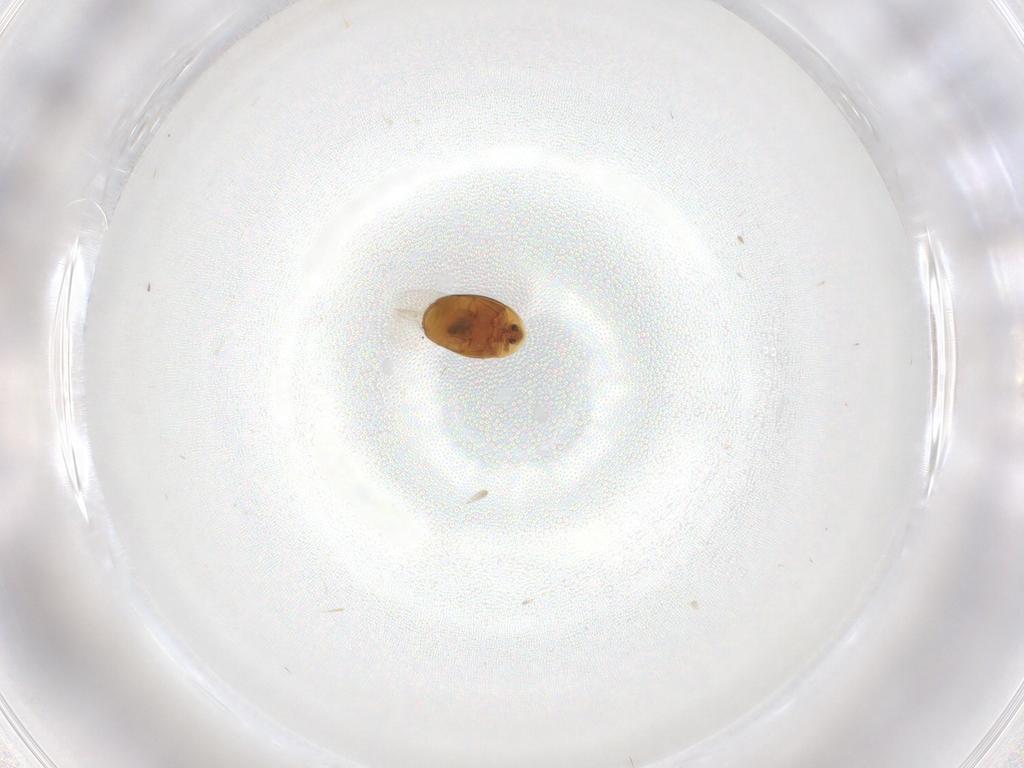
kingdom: Animalia
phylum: Arthropoda
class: Insecta
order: Coleoptera
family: Corylophidae
